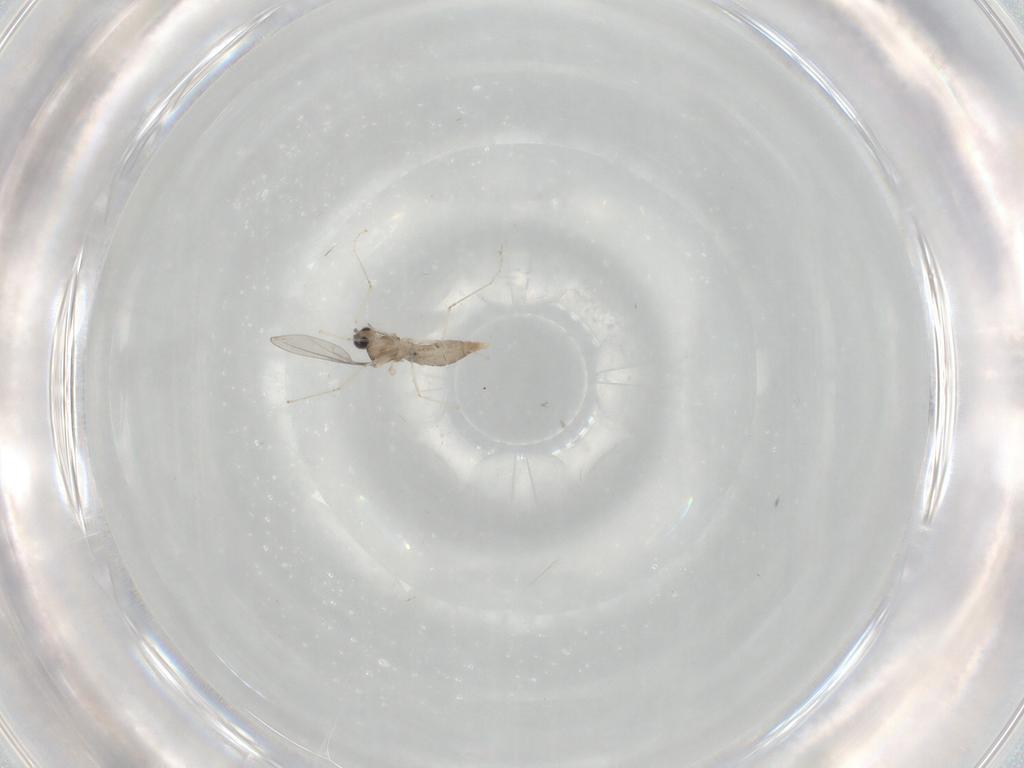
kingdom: Animalia
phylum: Arthropoda
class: Insecta
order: Diptera
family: Cecidomyiidae
